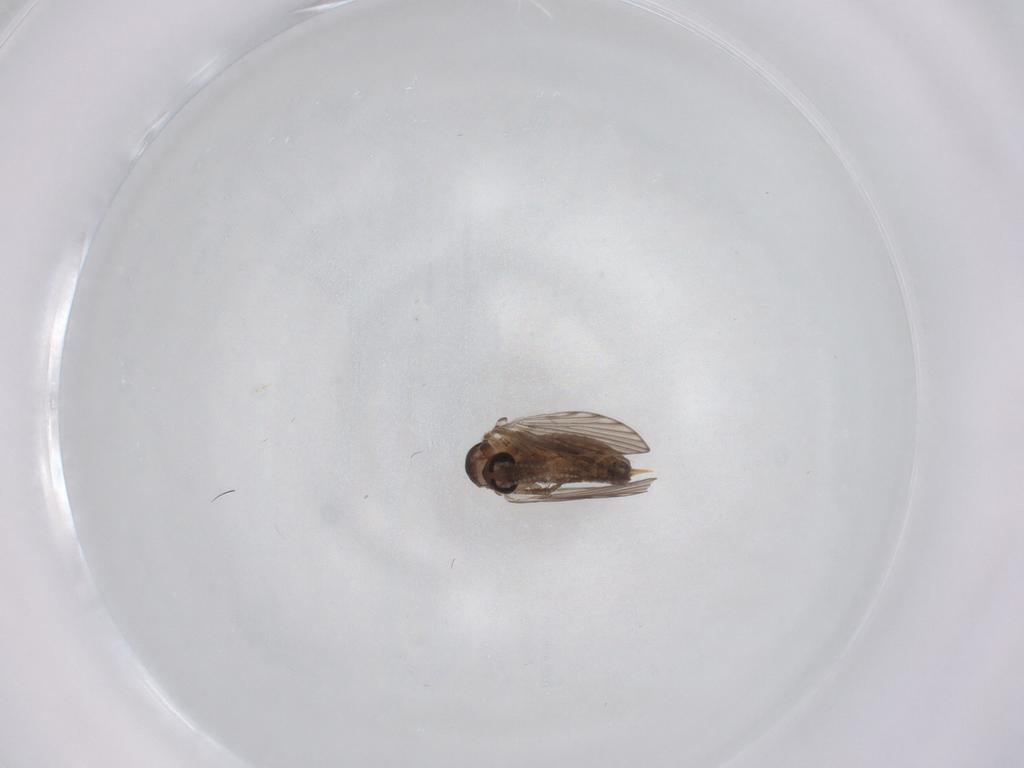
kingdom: Animalia
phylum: Arthropoda
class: Insecta
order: Diptera
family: Psychodidae
